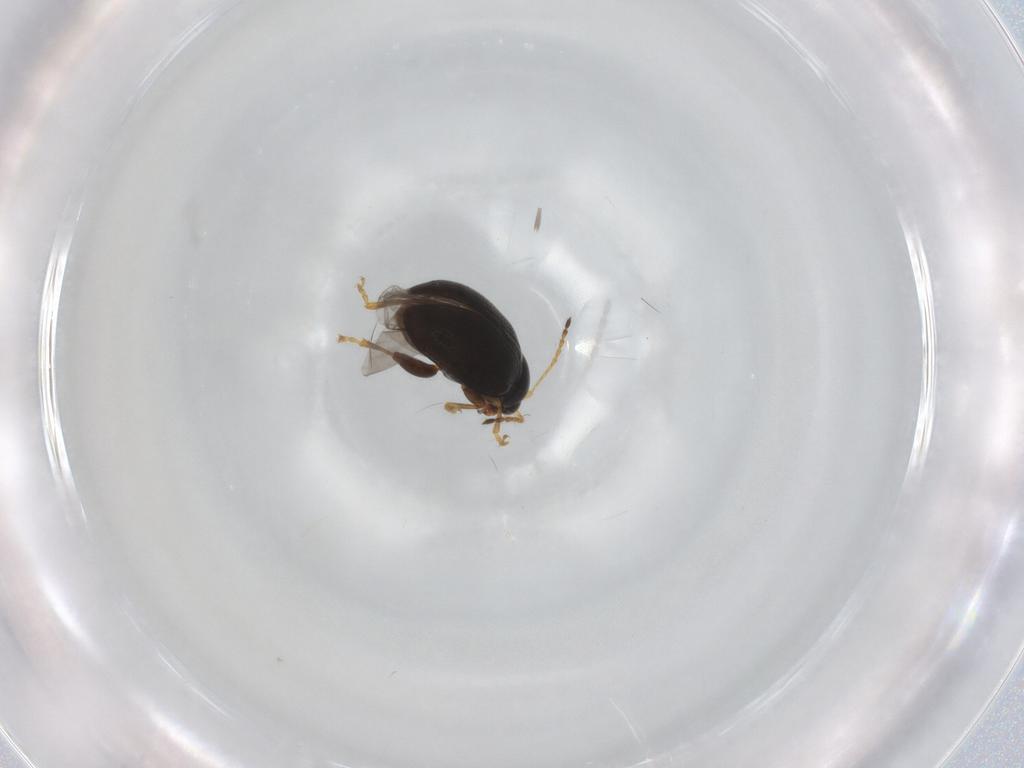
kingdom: Animalia
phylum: Arthropoda
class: Insecta
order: Coleoptera
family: Chrysomelidae
